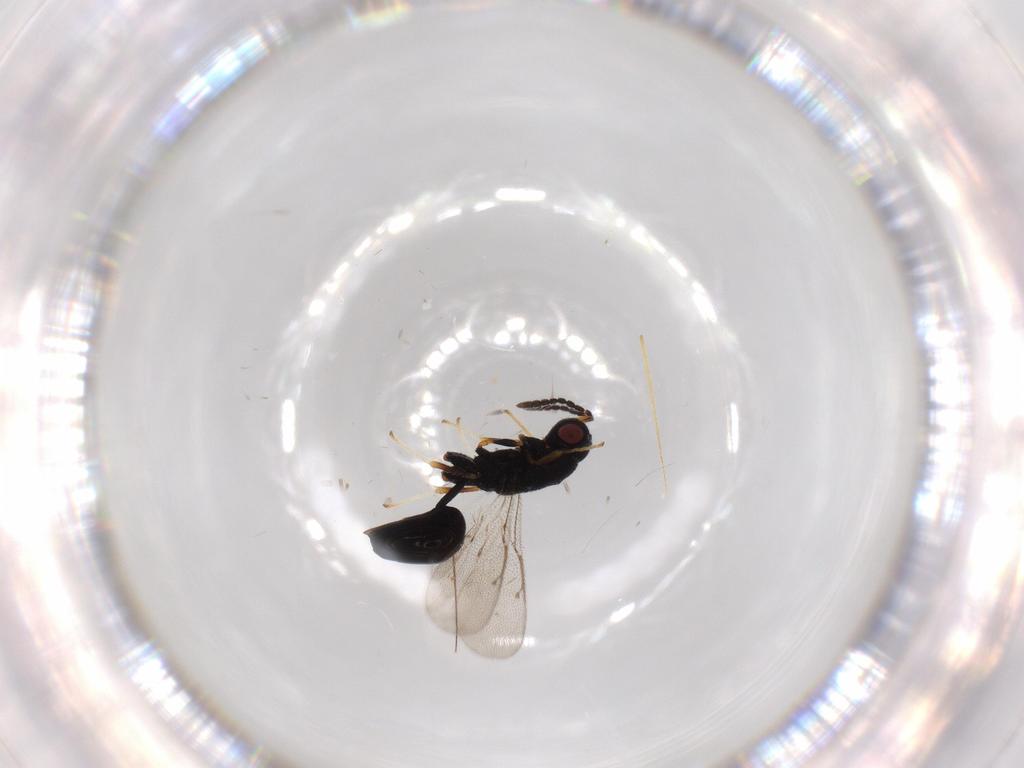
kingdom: Animalia
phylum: Arthropoda
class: Insecta
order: Hymenoptera
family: Eurytomidae
